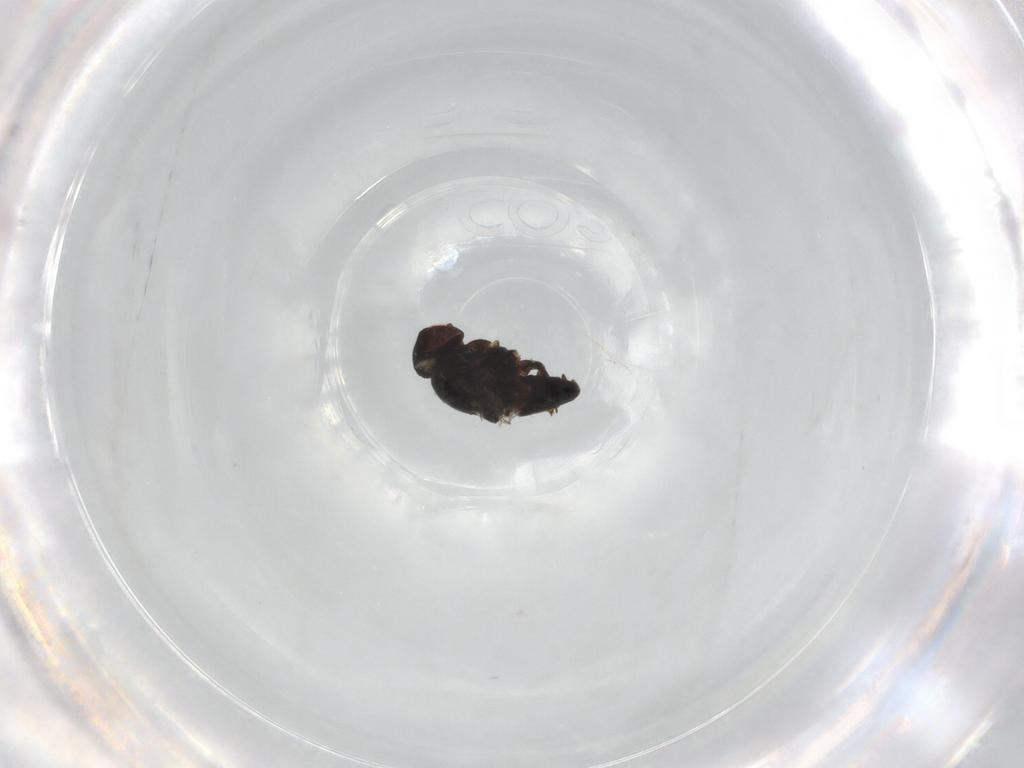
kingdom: Animalia
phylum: Arthropoda
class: Insecta
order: Diptera
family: Milichiidae
